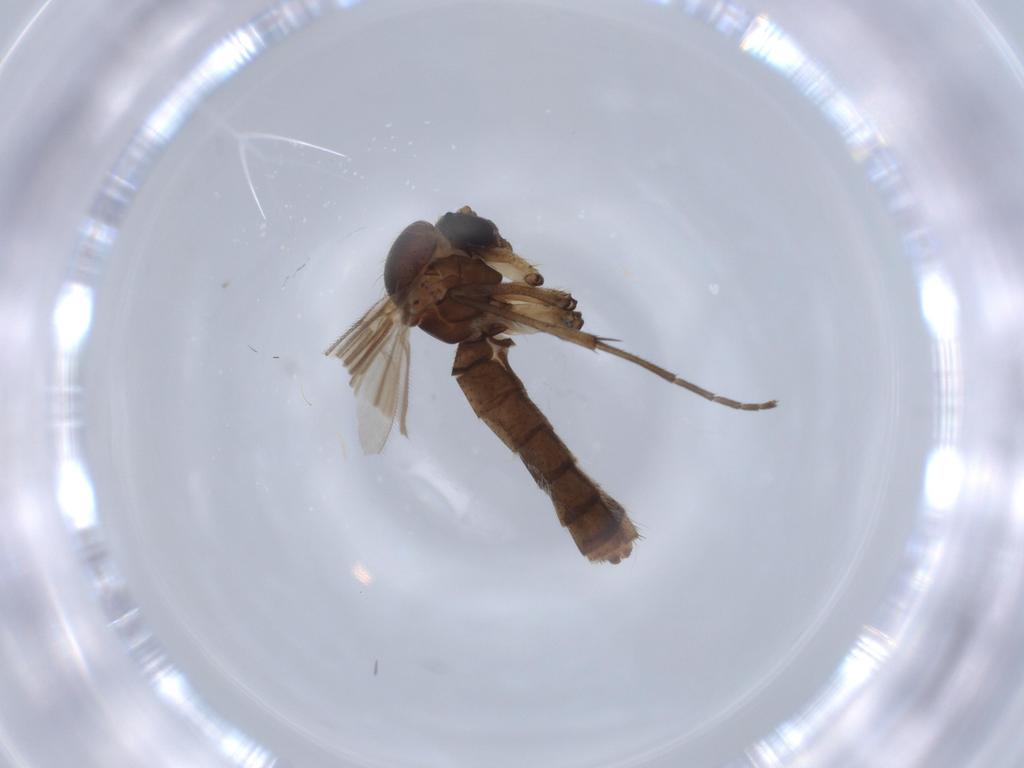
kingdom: Animalia
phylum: Arthropoda
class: Insecta
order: Diptera
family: Mycetophilidae
